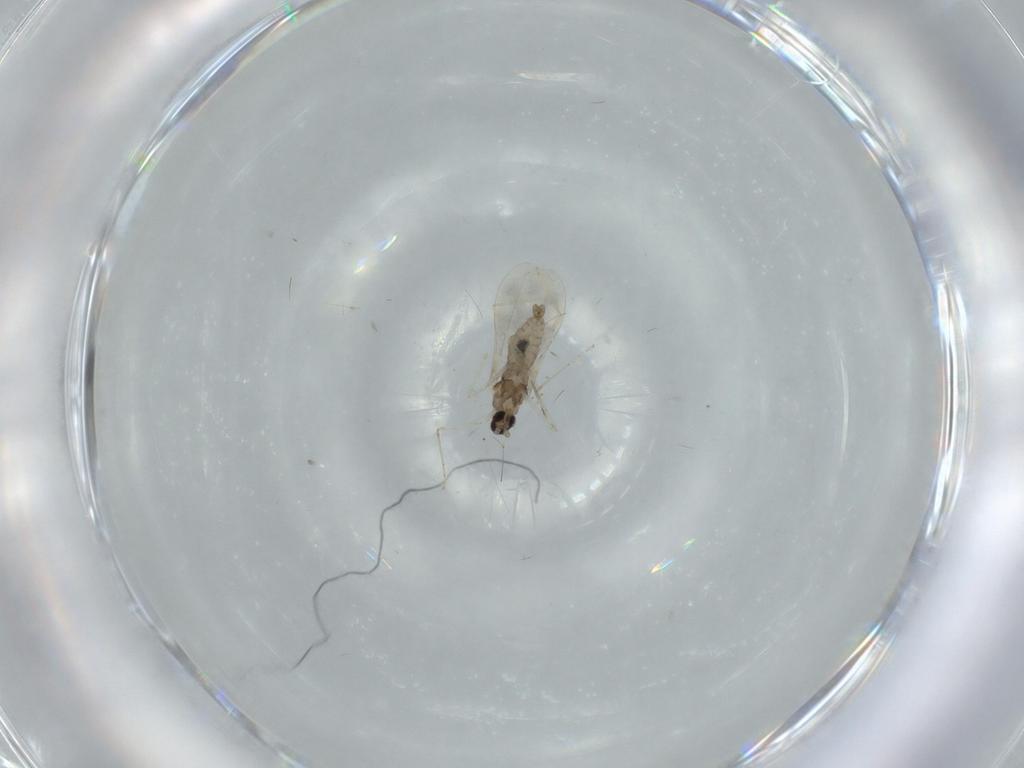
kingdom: Animalia
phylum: Arthropoda
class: Insecta
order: Diptera
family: Cecidomyiidae
